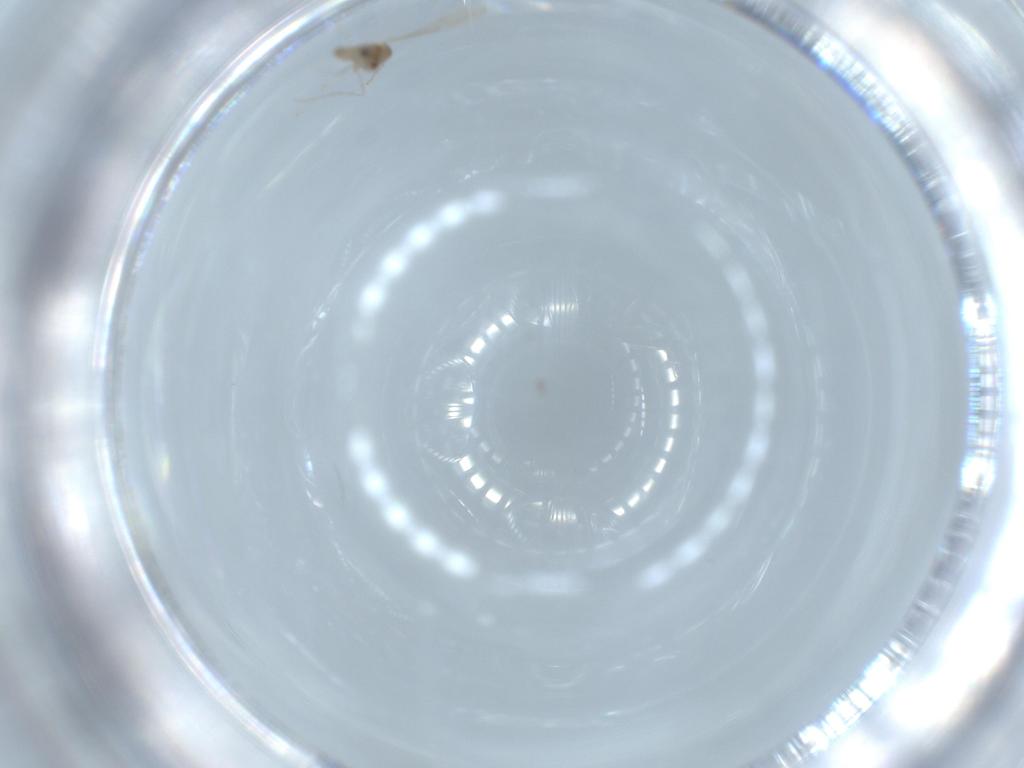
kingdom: Animalia
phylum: Arthropoda
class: Insecta
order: Diptera
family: Cecidomyiidae
